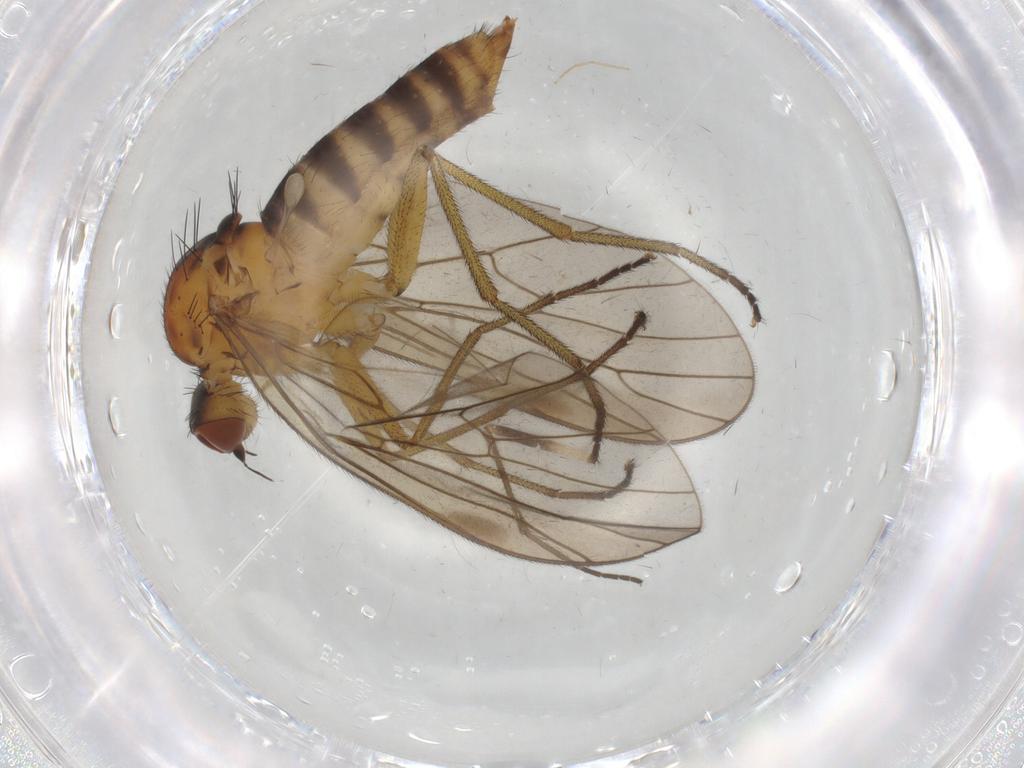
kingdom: Animalia
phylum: Arthropoda
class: Insecta
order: Diptera
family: Brachystomatidae
